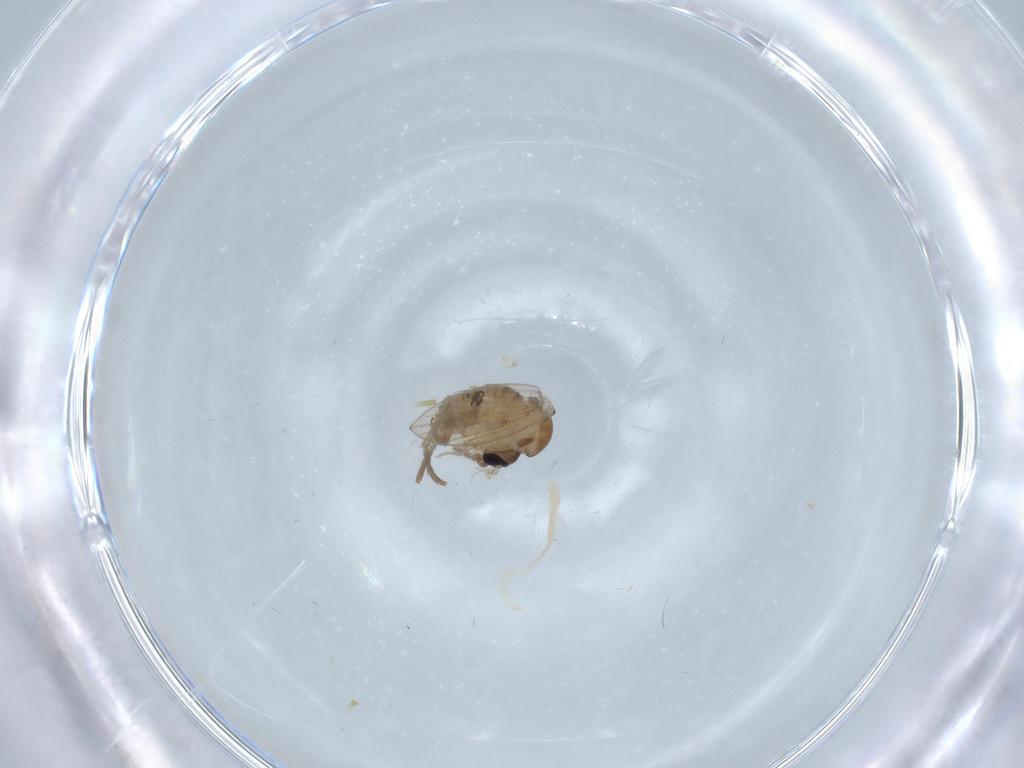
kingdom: Animalia
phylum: Arthropoda
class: Insecta
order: Diptera
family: Psychodidae
